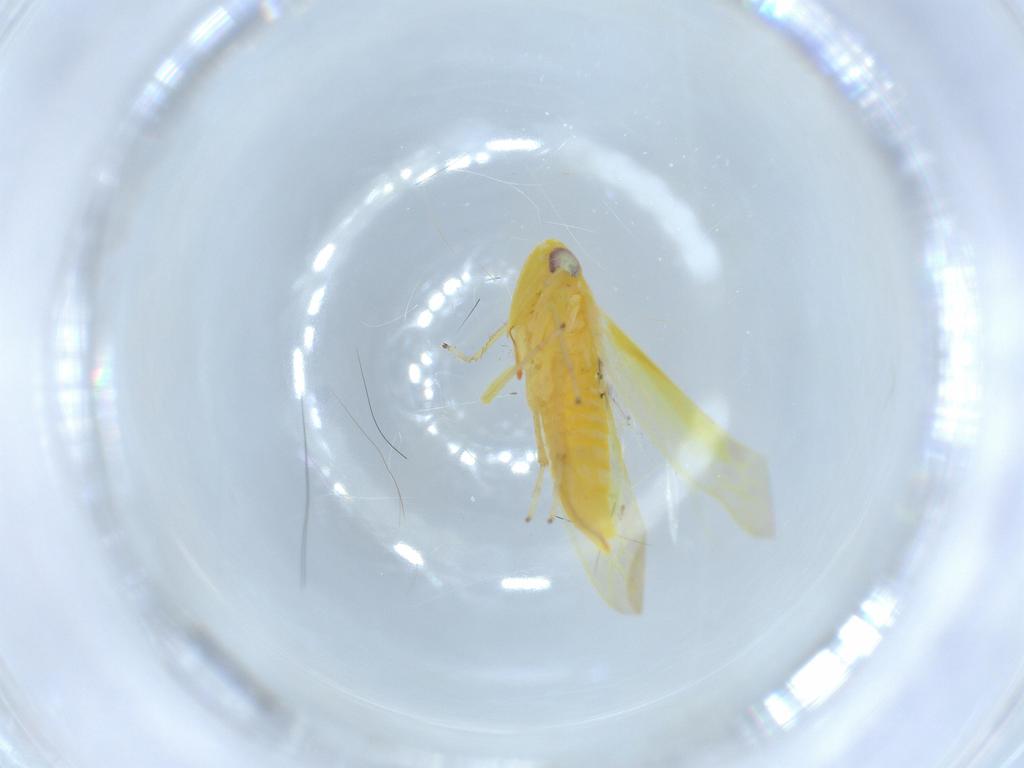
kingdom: Animalia
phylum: Arthropoda
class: Insecta
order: Hemiptera
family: Cicadellidae
